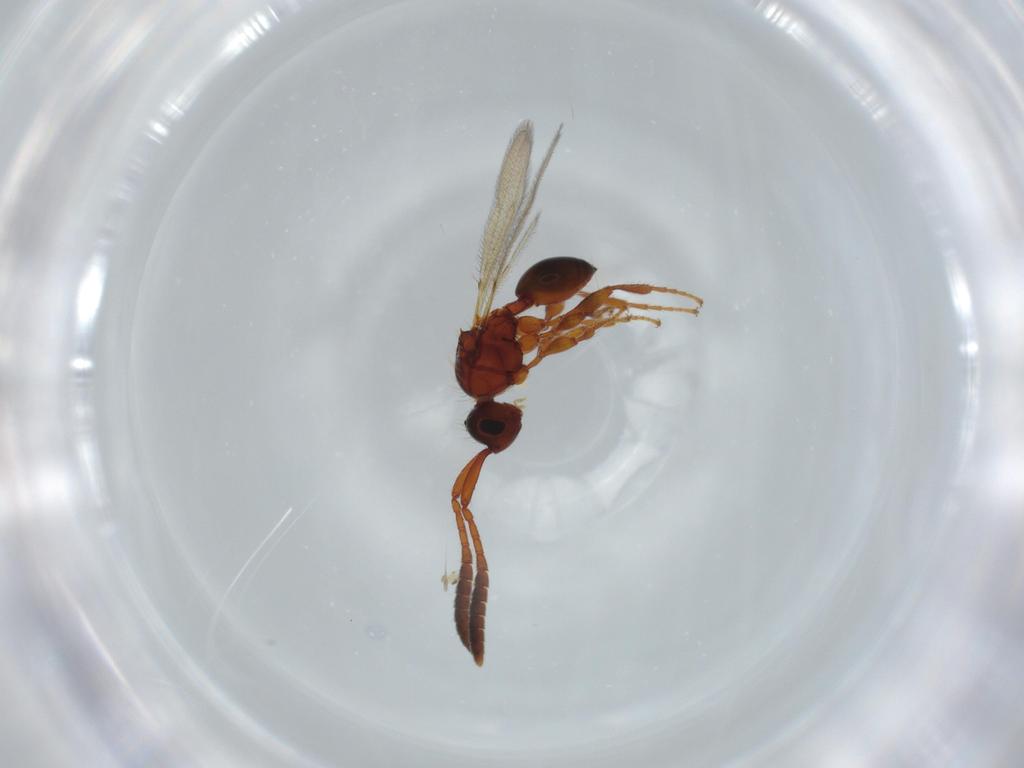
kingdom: Animalia
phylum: Arthropoda
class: Insecta
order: Hymenoptera
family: Diapriidae
